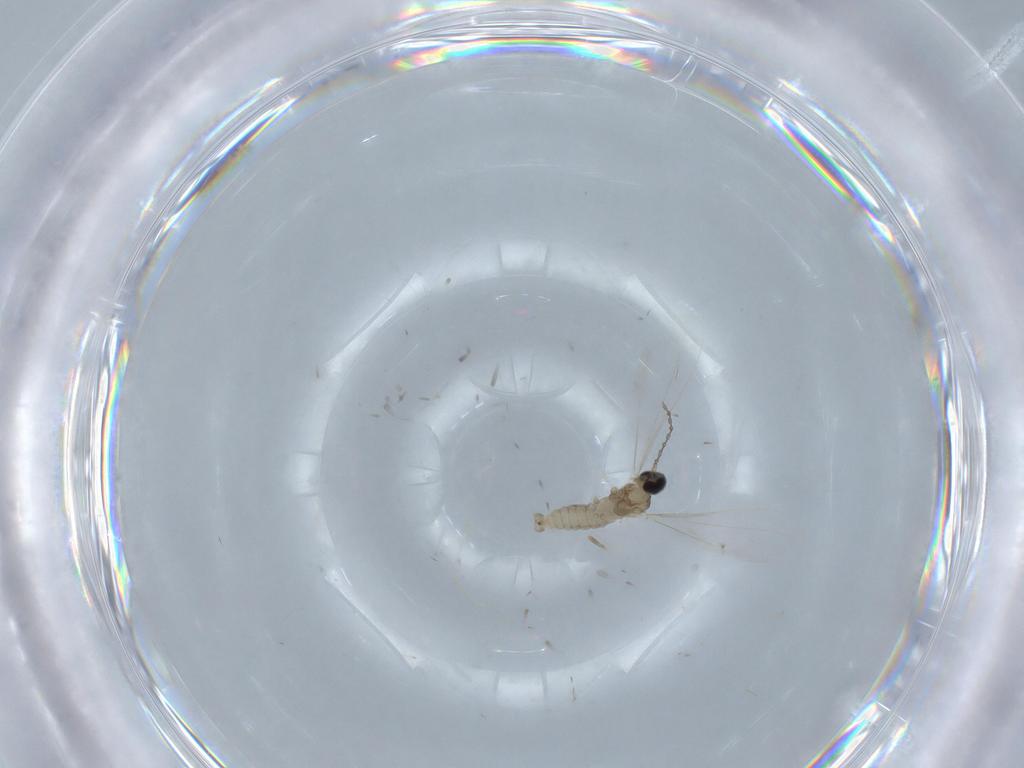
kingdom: Animalia
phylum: Arthropoda
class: Insecta
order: Diptera
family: Cecidomyiidae
